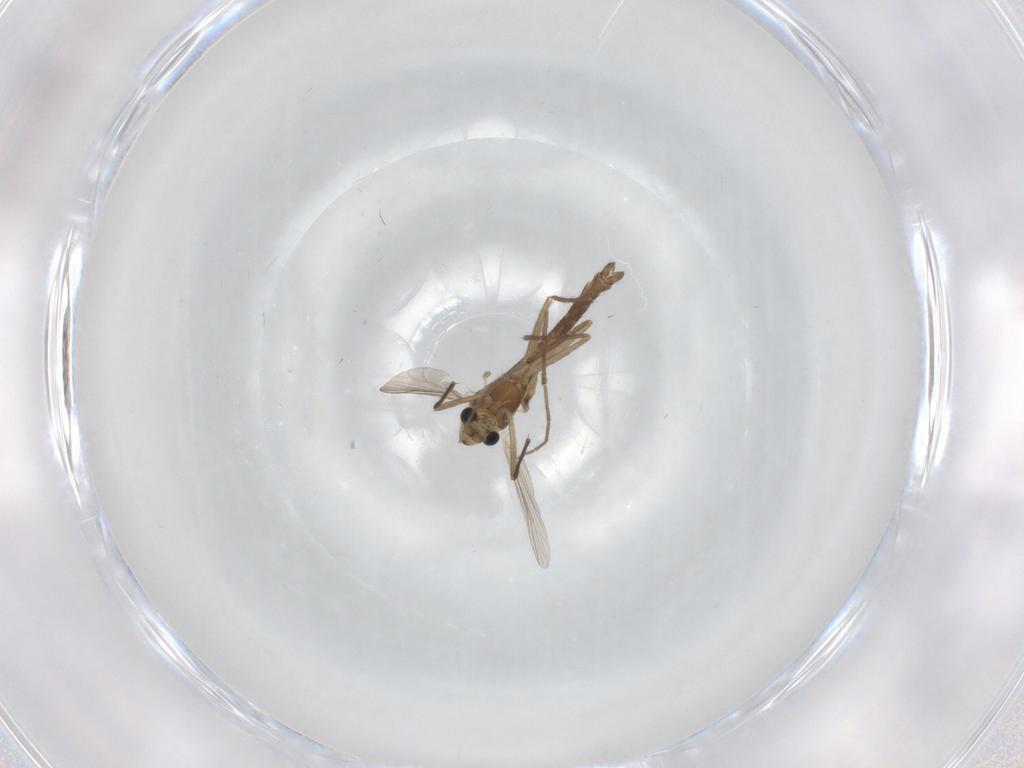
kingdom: Animalia
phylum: Arthropoda
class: Insecta
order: Diptera
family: Chironomidae
